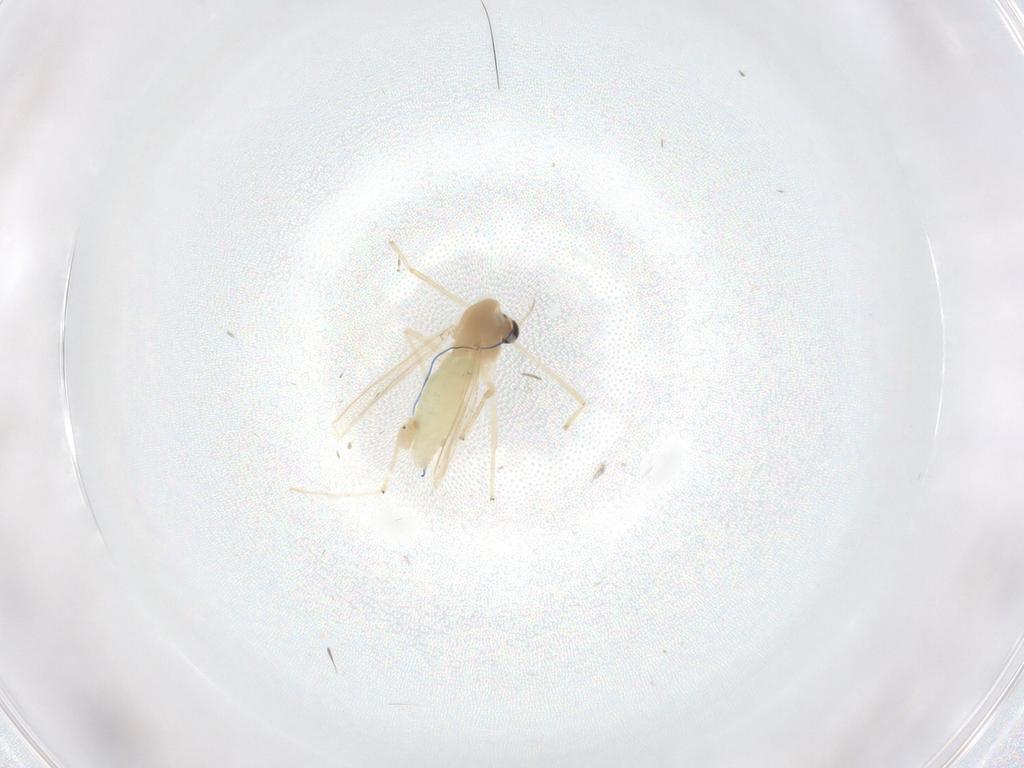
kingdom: Animalia
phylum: Arthropoda
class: Insecta
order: Diptera
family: Chironomidae
